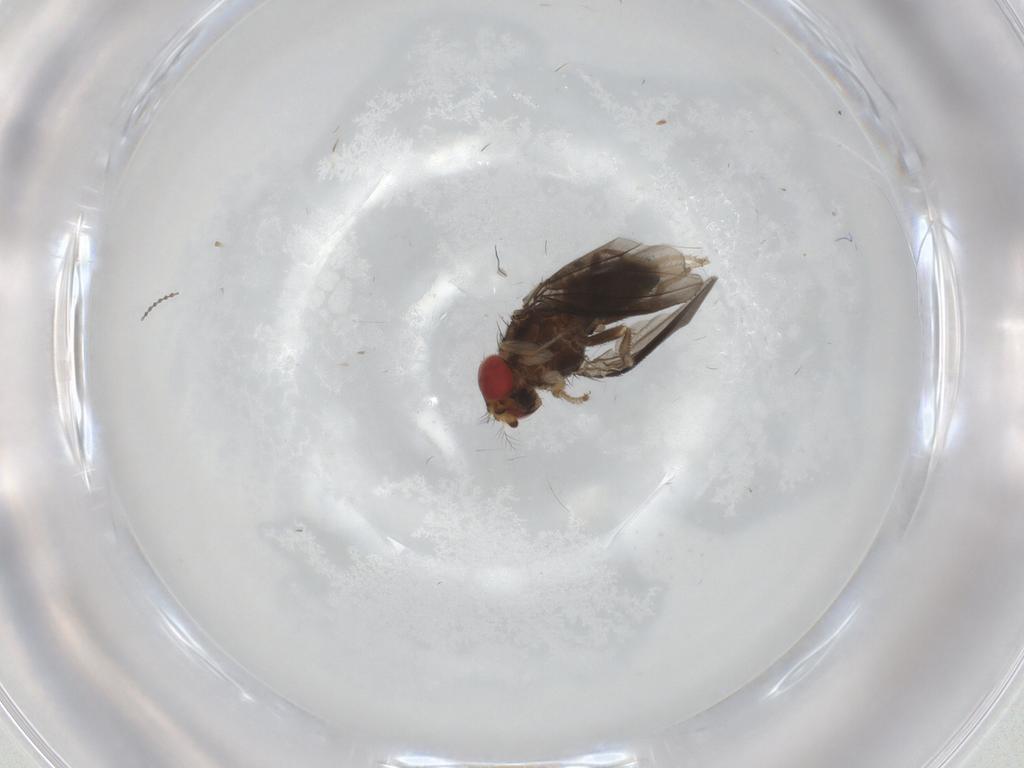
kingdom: Animalia
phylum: Arthropoda
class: Insecta
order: Diptera
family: Drosophilidae
